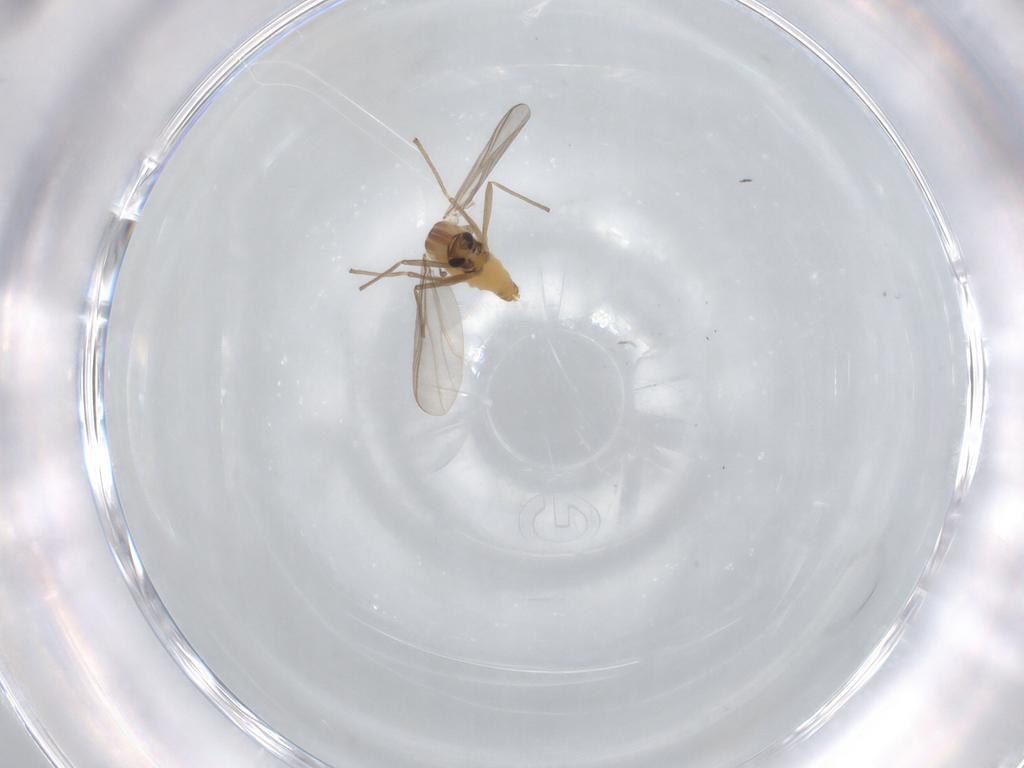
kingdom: Animalia
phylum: Arthropoda
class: Insecta
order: Diptera
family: Chironomidae
